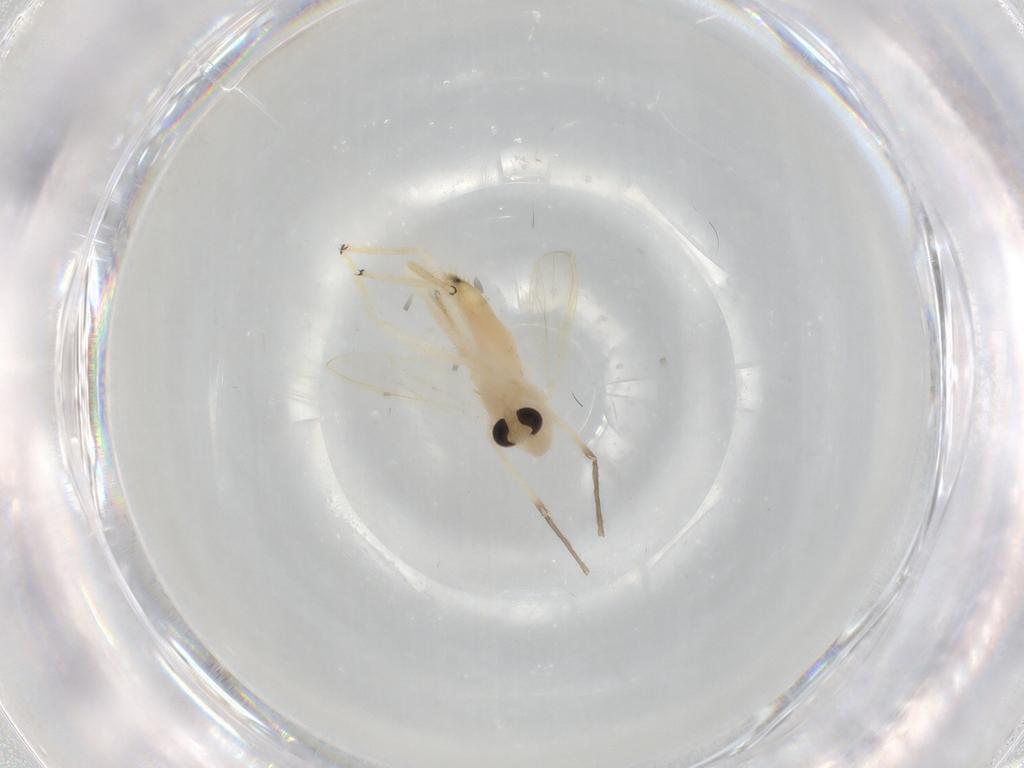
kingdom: Animalia
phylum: Arthropoda
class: Insecta
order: Diptera
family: Chironomidae
